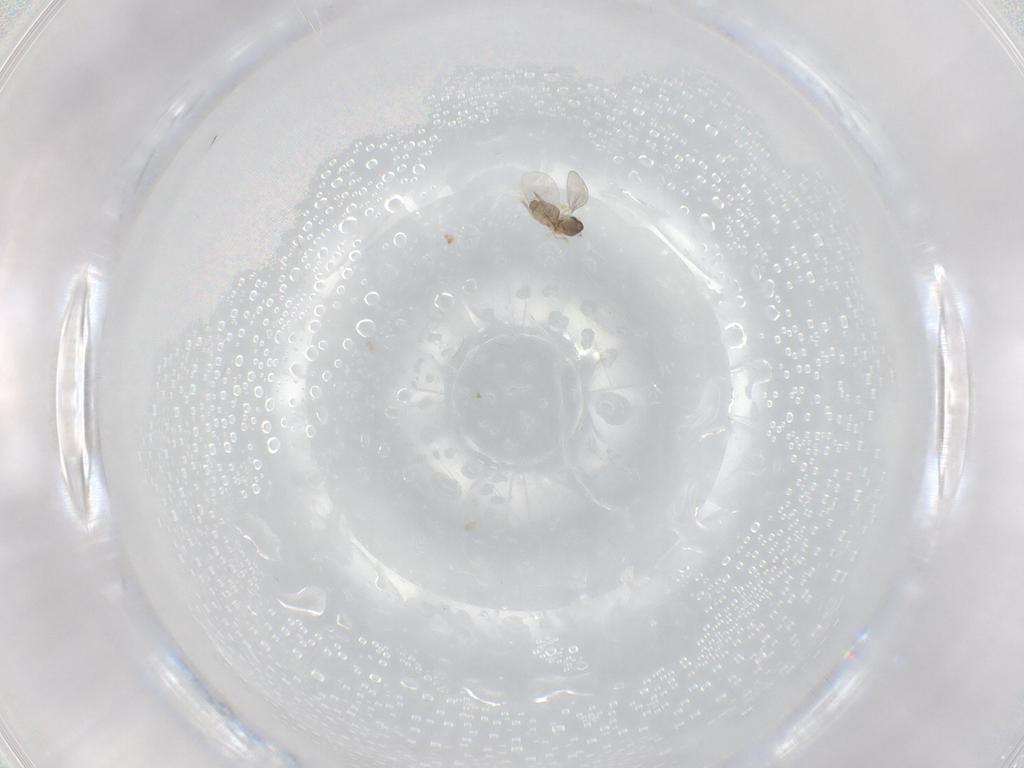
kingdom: Animalia
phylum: Arthropoda
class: Insecta
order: Diptera
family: Cecidomyiidae
